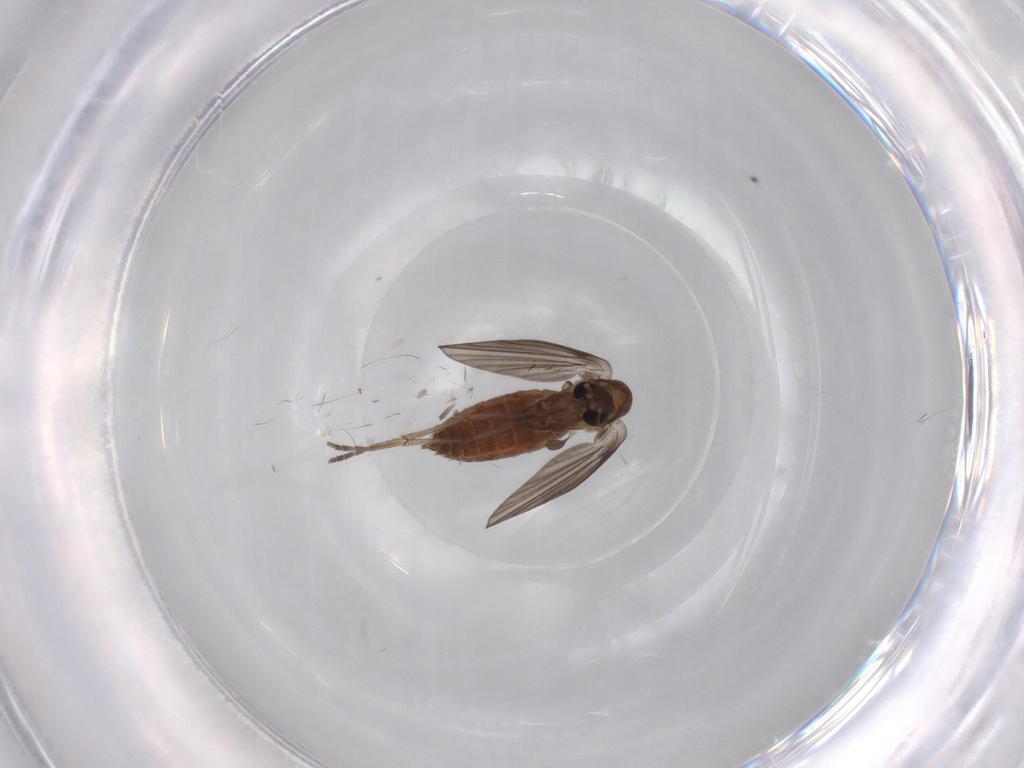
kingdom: Animalia
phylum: Arthropoda
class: Insecta
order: Diptera
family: Psychodidae
